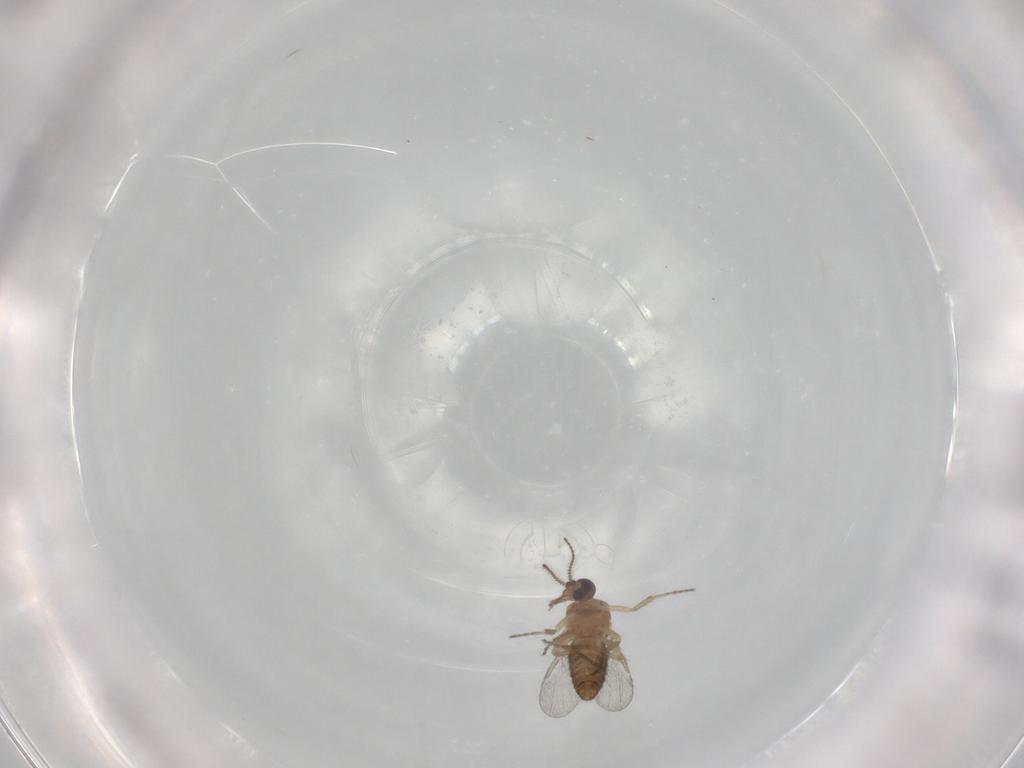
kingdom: Animalia
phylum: Arthropoda
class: Insecta
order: Diptera
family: Ceratopogonidae
